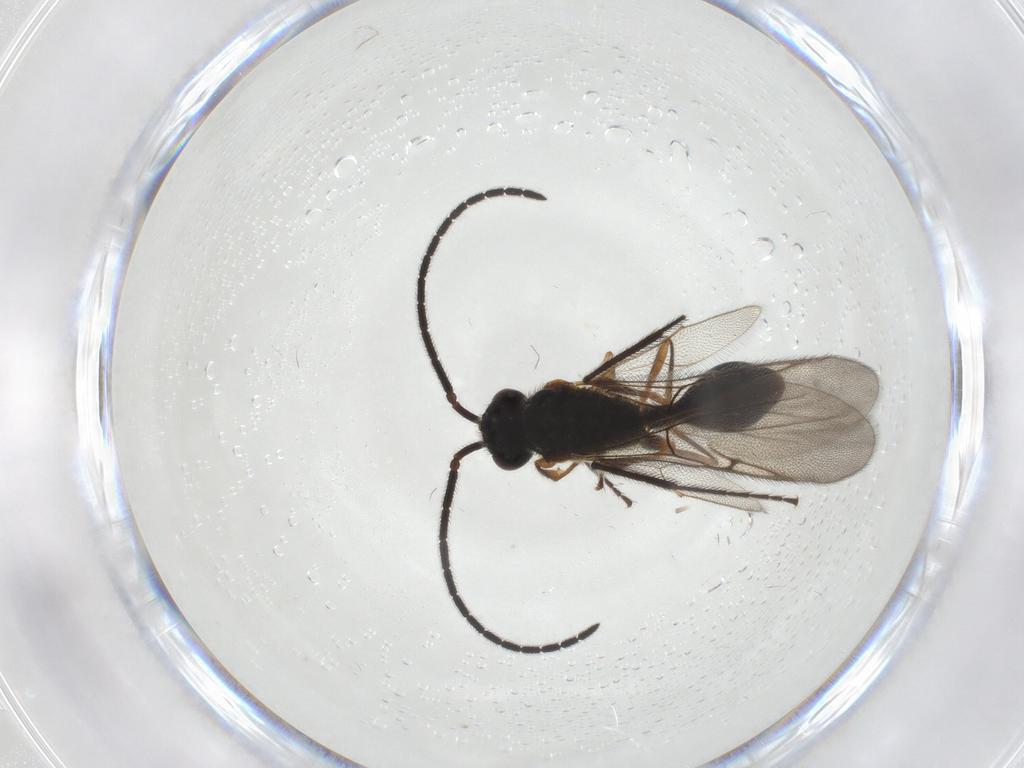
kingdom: Animalia
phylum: Arthropoda
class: Insecta
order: Hymenoptera
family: Diapriidae
